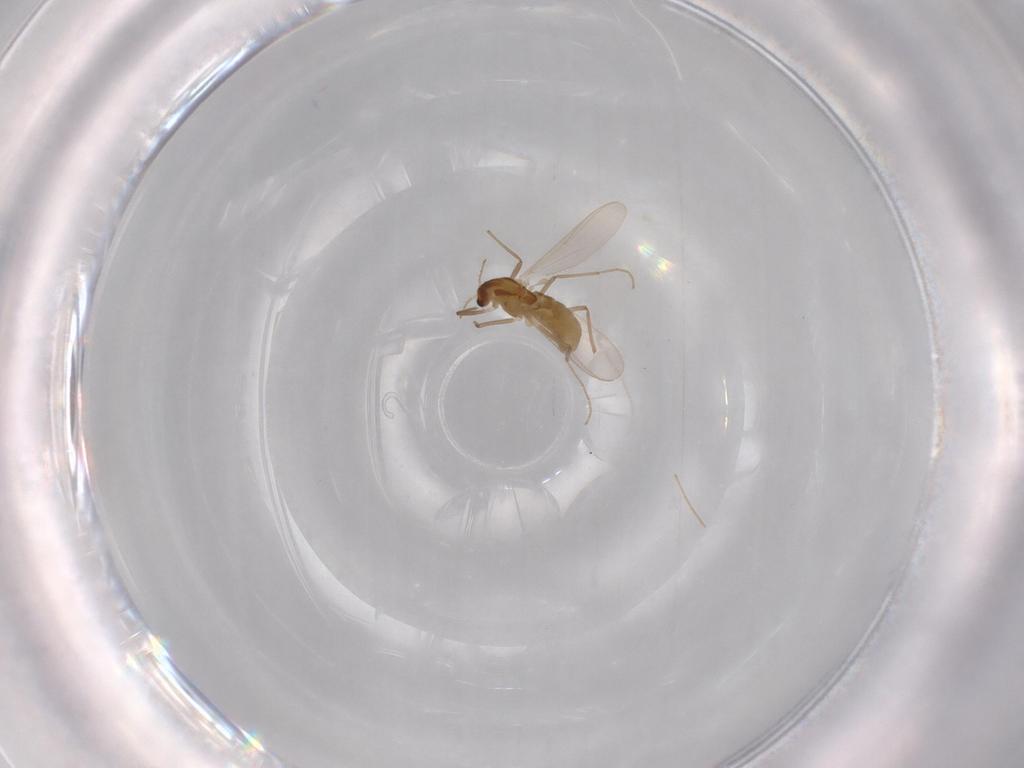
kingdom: Animalia
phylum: Arthropoda
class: Insecta
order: Diptera
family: Chironomidae
